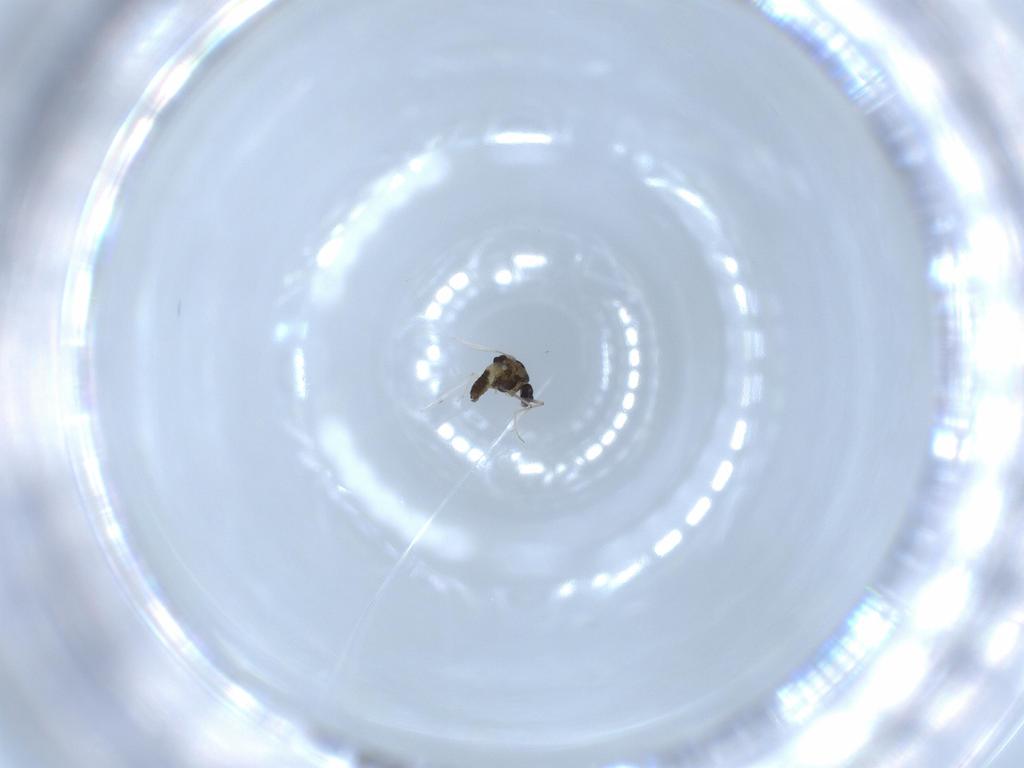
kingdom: Animalia
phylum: Arthropoda
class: Insecta
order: Diptera
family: Chironomidae
